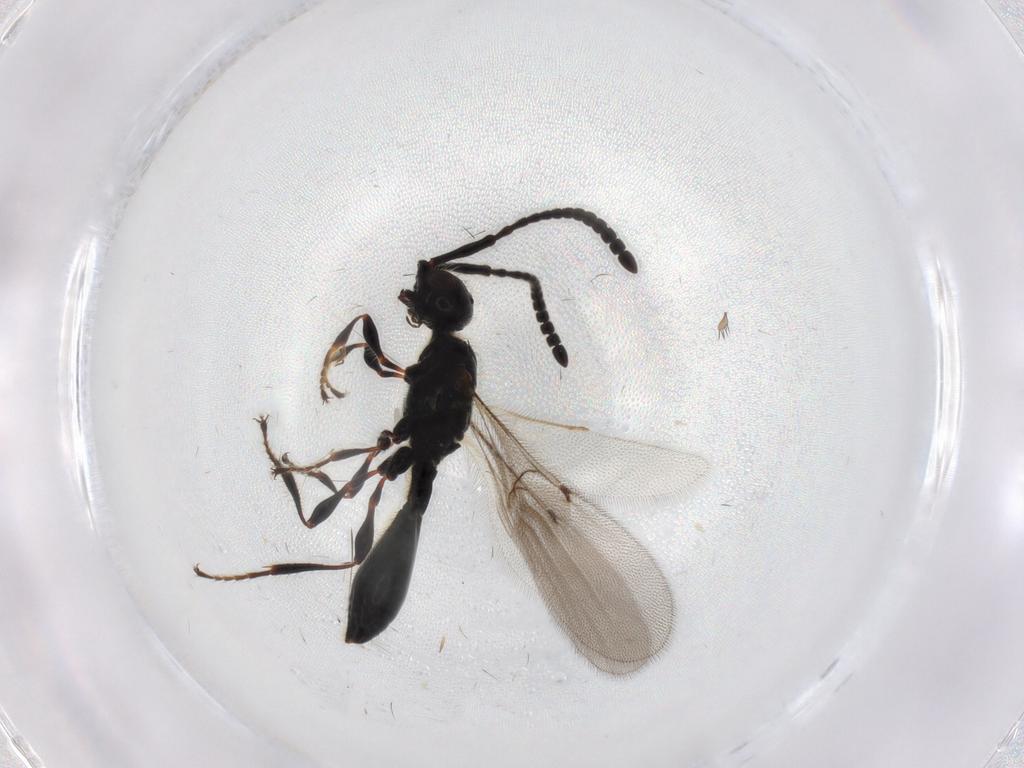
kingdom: Animalia
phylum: Arthropoda
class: Insecta
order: Hymenoptera
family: Diapriidae
